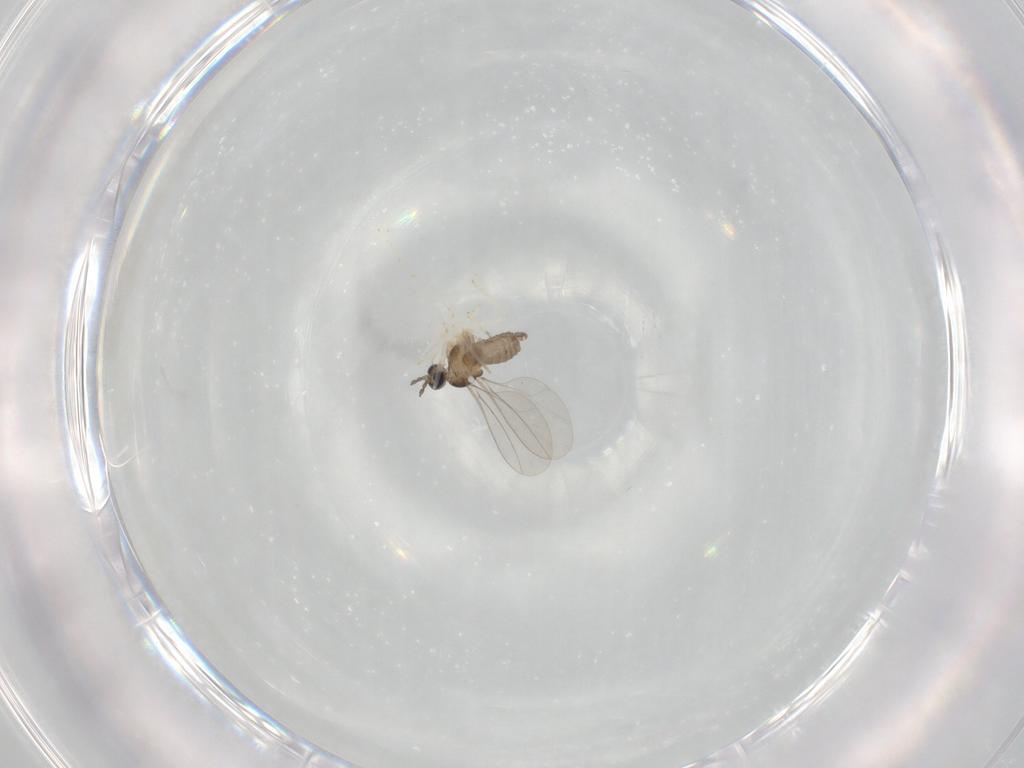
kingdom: Animalia
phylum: Arthropoda
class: Insecta
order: Diptera
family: Cecidomyiidae
